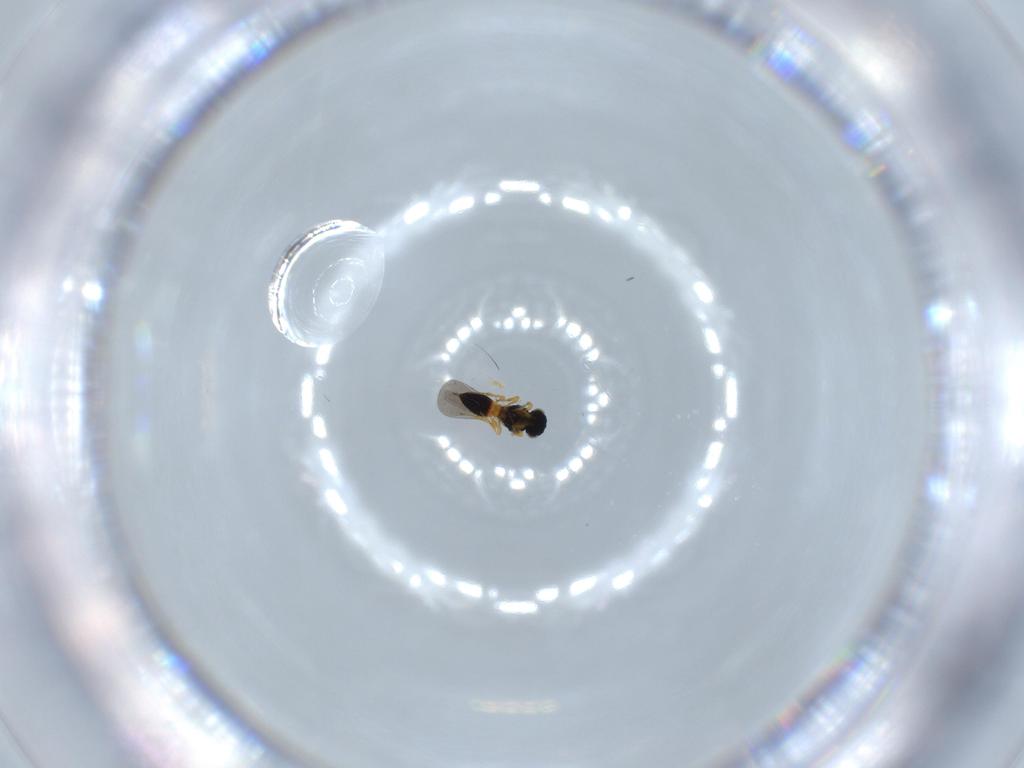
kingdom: Animalia
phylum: Arthropoda
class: Insecta
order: Hymenoptera
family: Platygastridae
